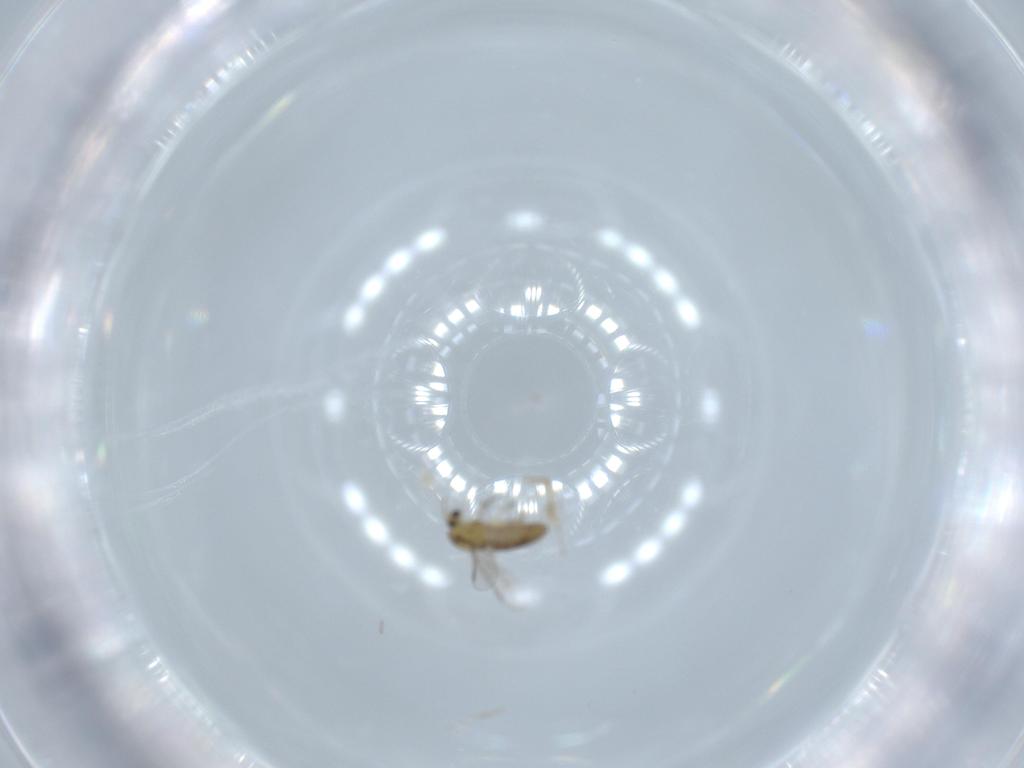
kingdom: Animalia
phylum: Arthropoda
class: Insecta
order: Diptera
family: Chironomidae
